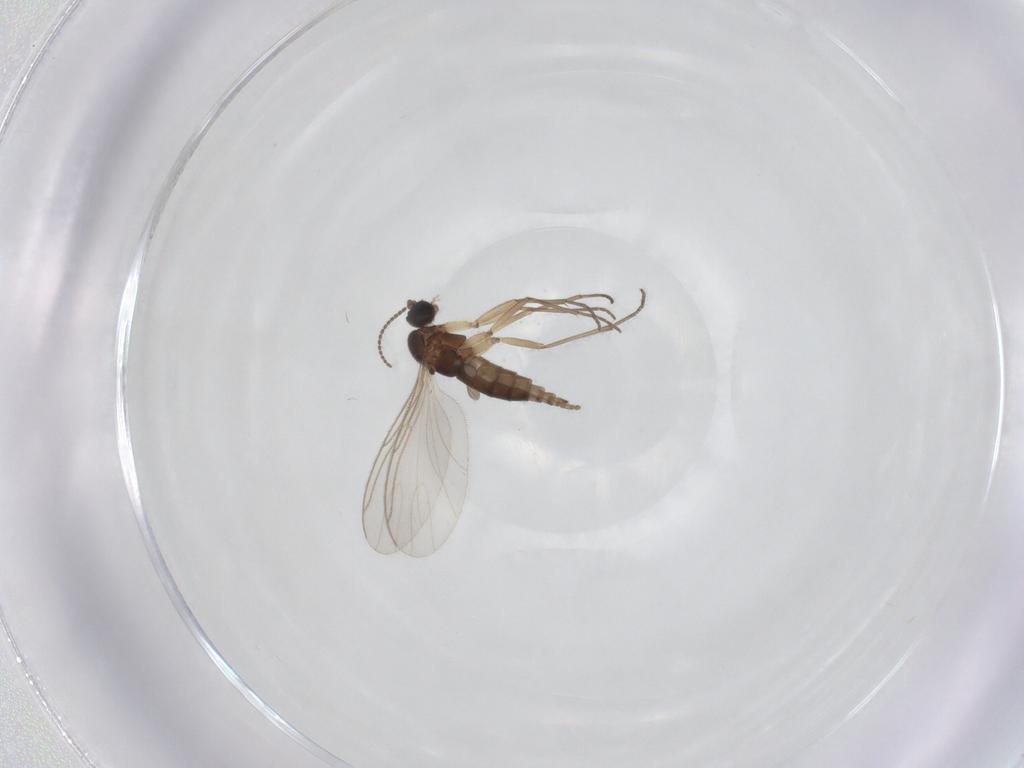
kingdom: Animalia
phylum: Arthropoda
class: Insecta
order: Diptera
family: Sciaridae
